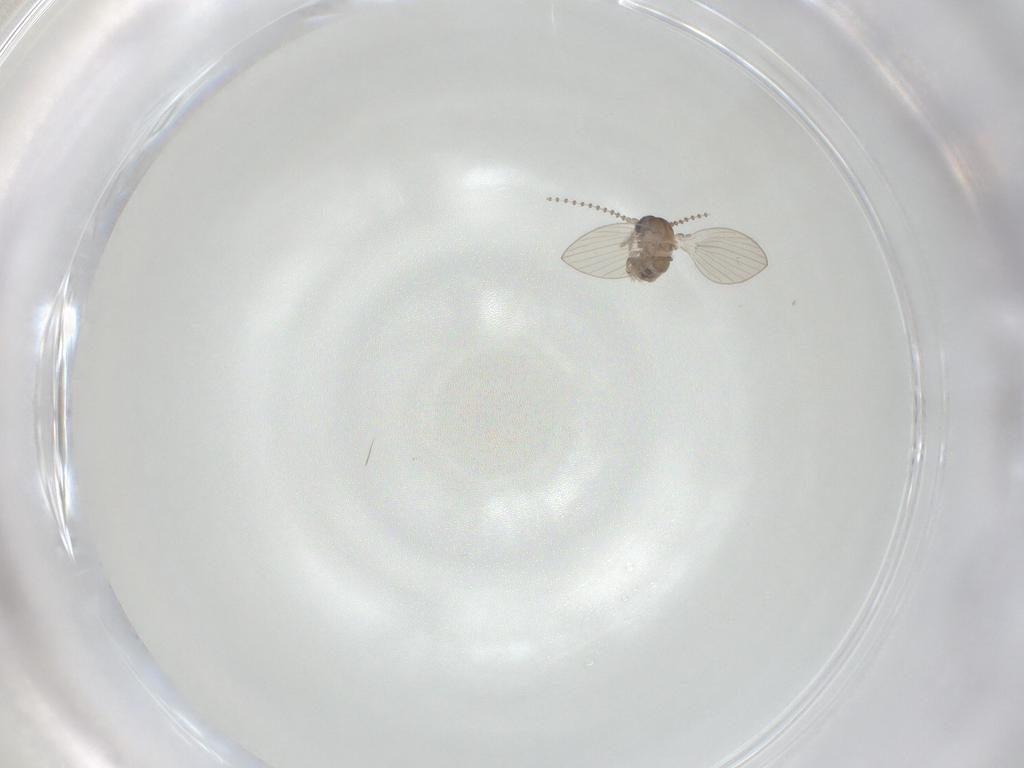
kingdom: Animalia
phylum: Arthropoda
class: Insecta
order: Diptera
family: Psychodidae
